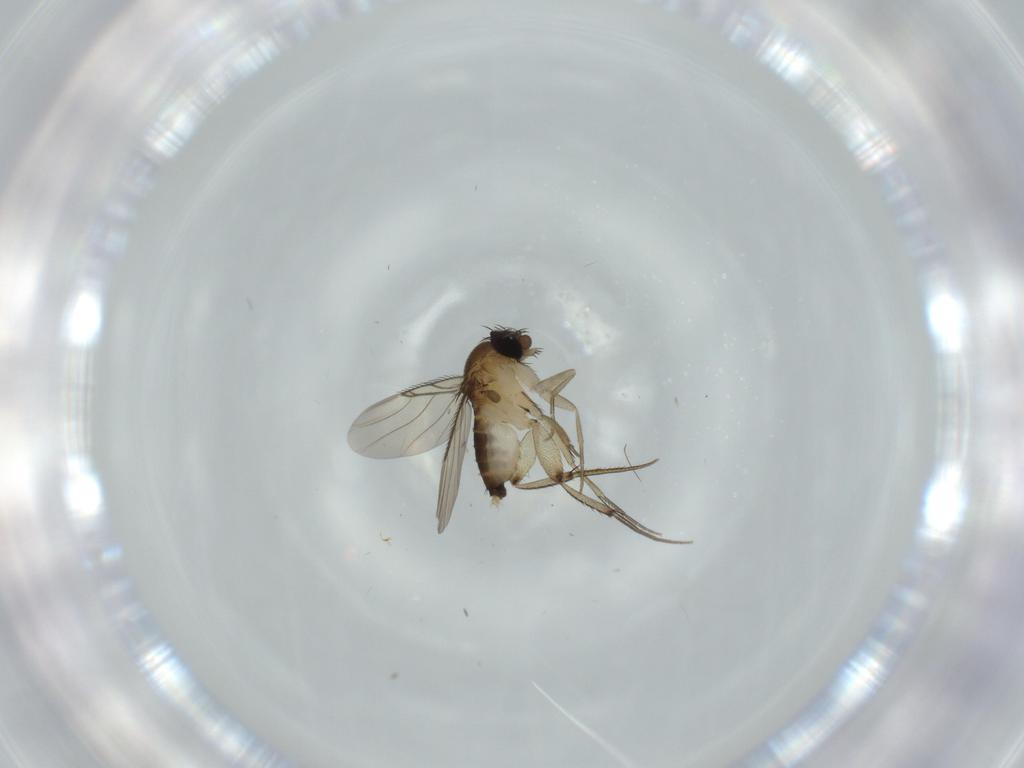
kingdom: Animalia
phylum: Arthropoda
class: Insecta
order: Diptera
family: Phoridae
